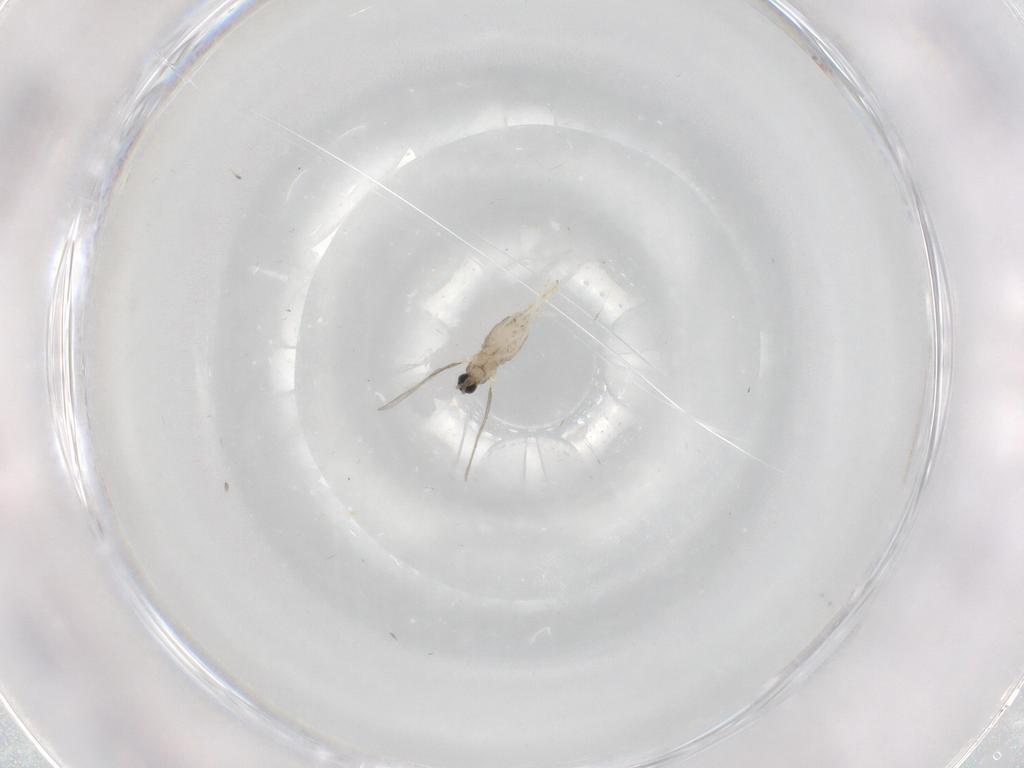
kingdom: Animalia
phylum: Arthropoda
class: Insecta
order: Diptera
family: Cecidomyiidae
